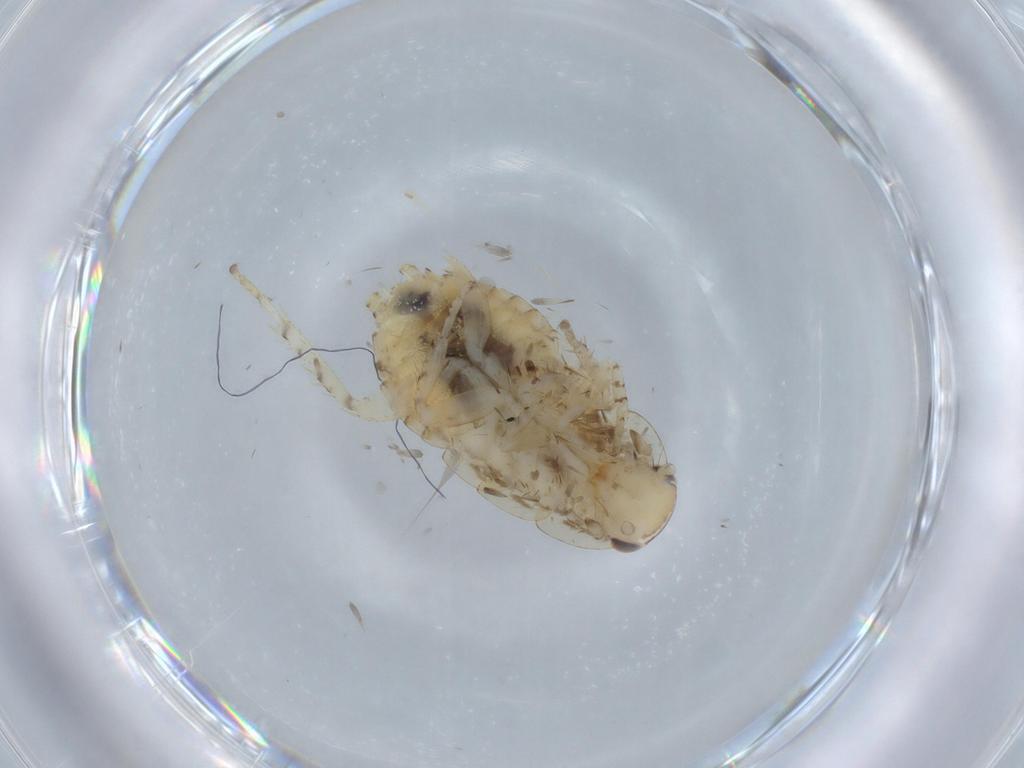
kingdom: Animalia
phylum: Arthropoda
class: Insecta
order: Blattodea
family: Ectobiidae
